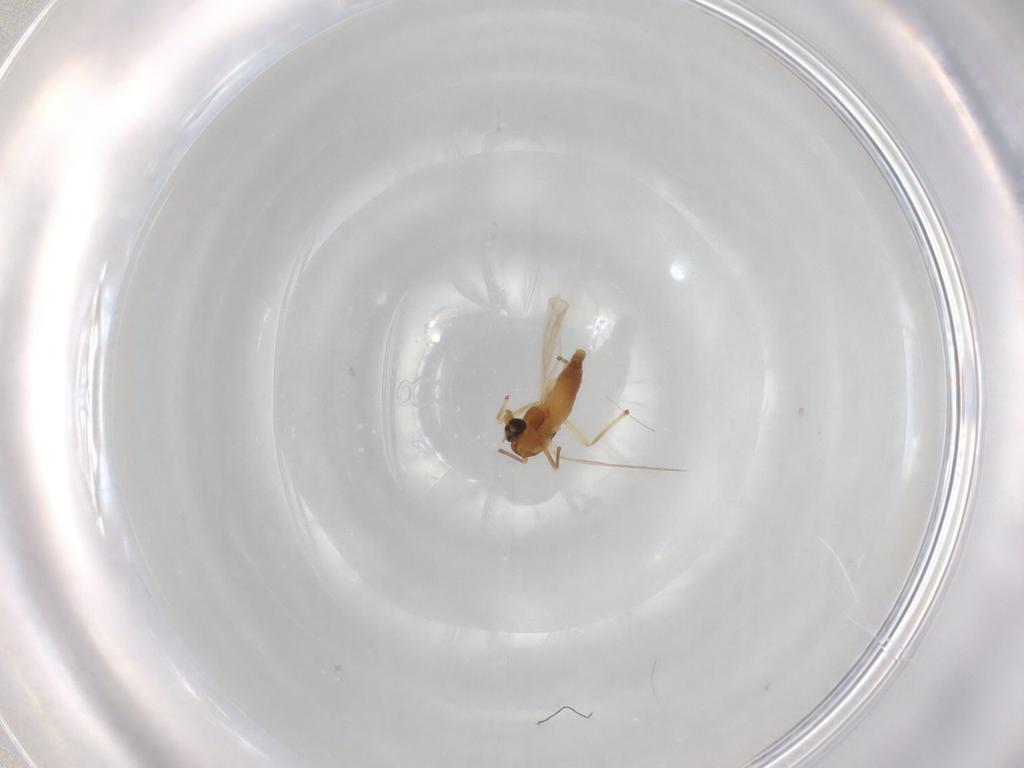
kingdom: Animalia
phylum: Arthropoda
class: Insecta
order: Diptera
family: Chironomidae
